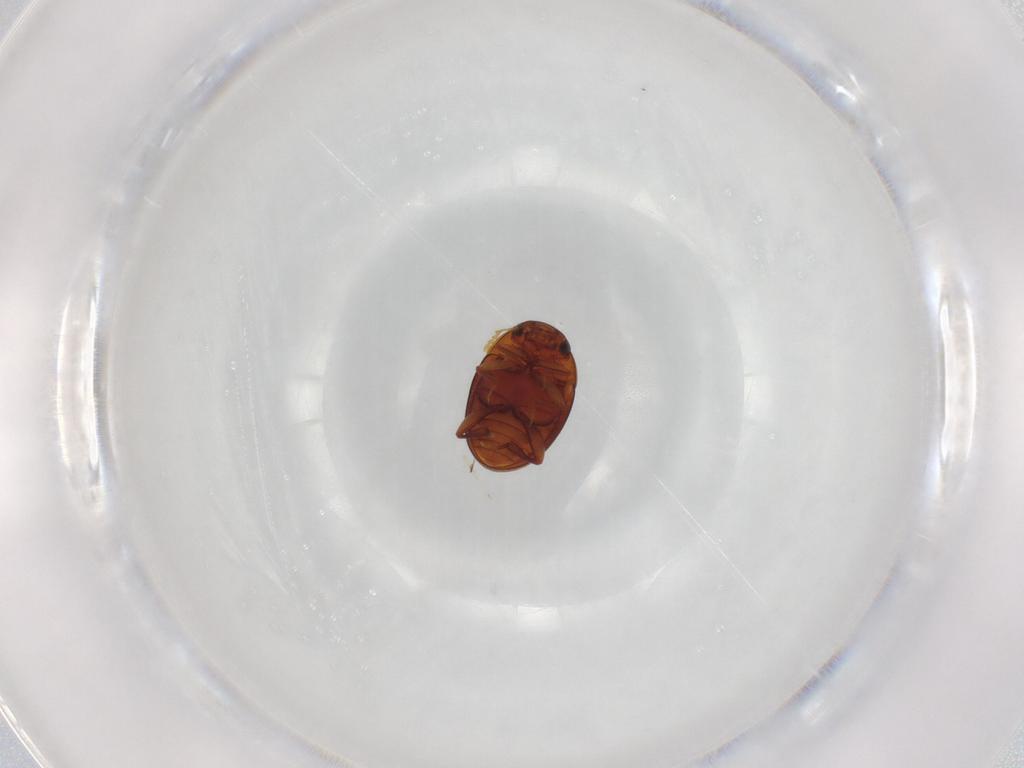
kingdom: Animalia
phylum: Arthropoda
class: Insecta
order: Coleoptera
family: Leiodidae
